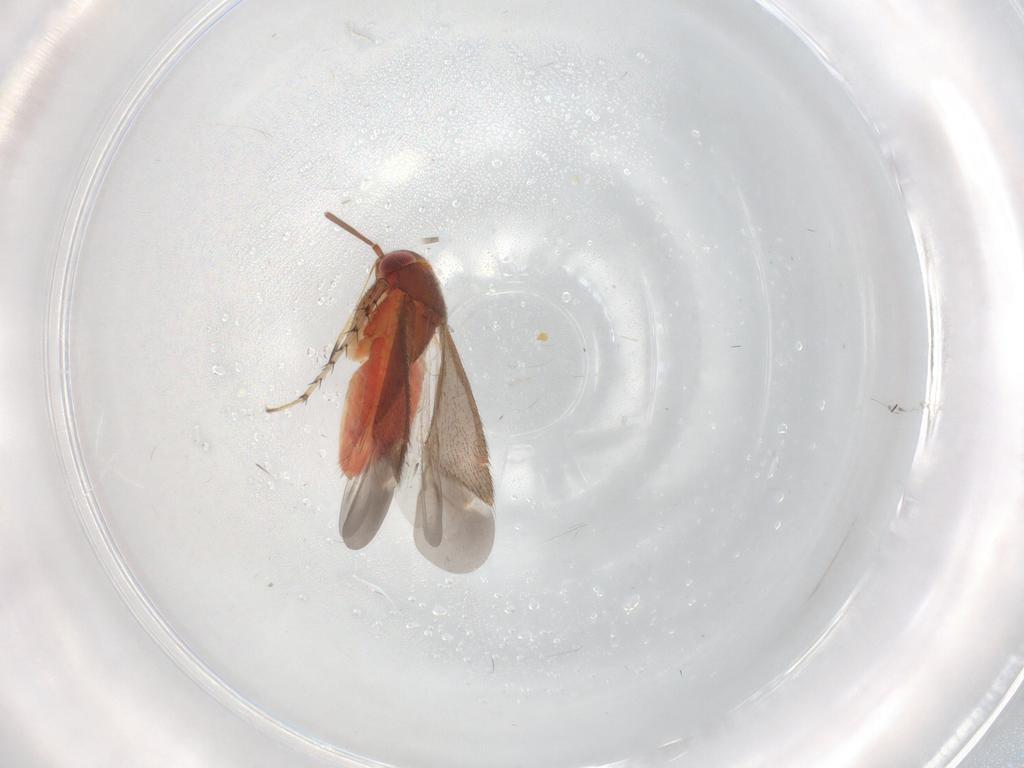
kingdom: Animalia
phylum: Arthropoda
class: Insecta
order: Hemiptera
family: Miridae
